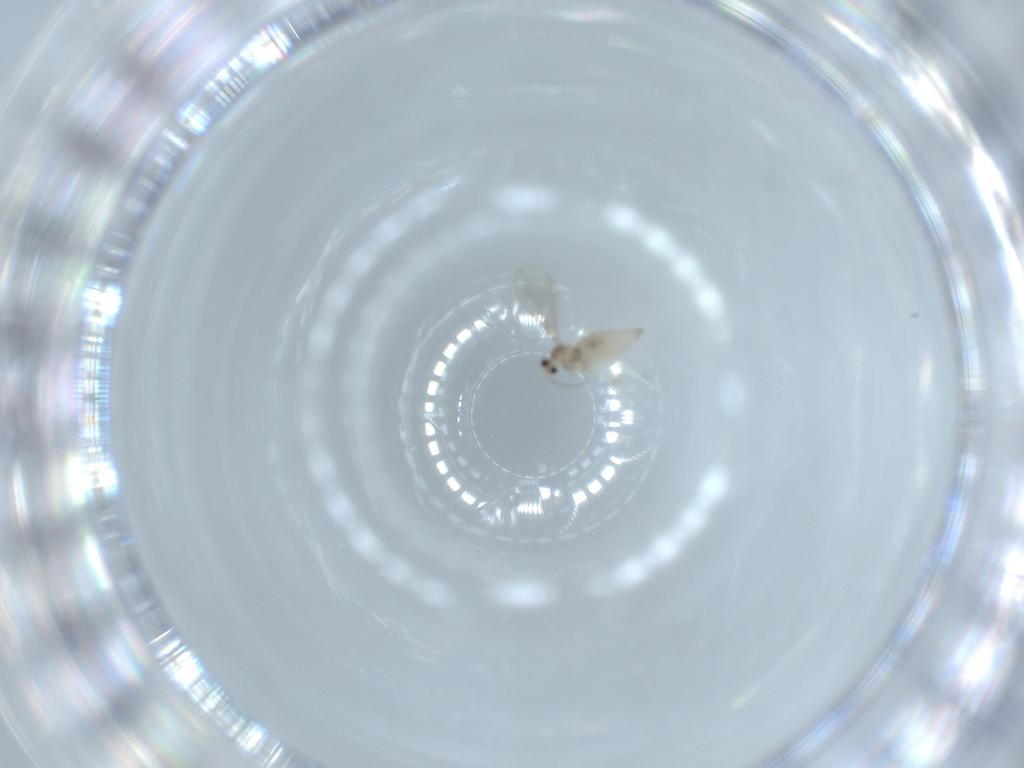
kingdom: Animalia
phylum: Arthropoda
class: Insecta
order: Diptera
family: Cecidomyiidae
